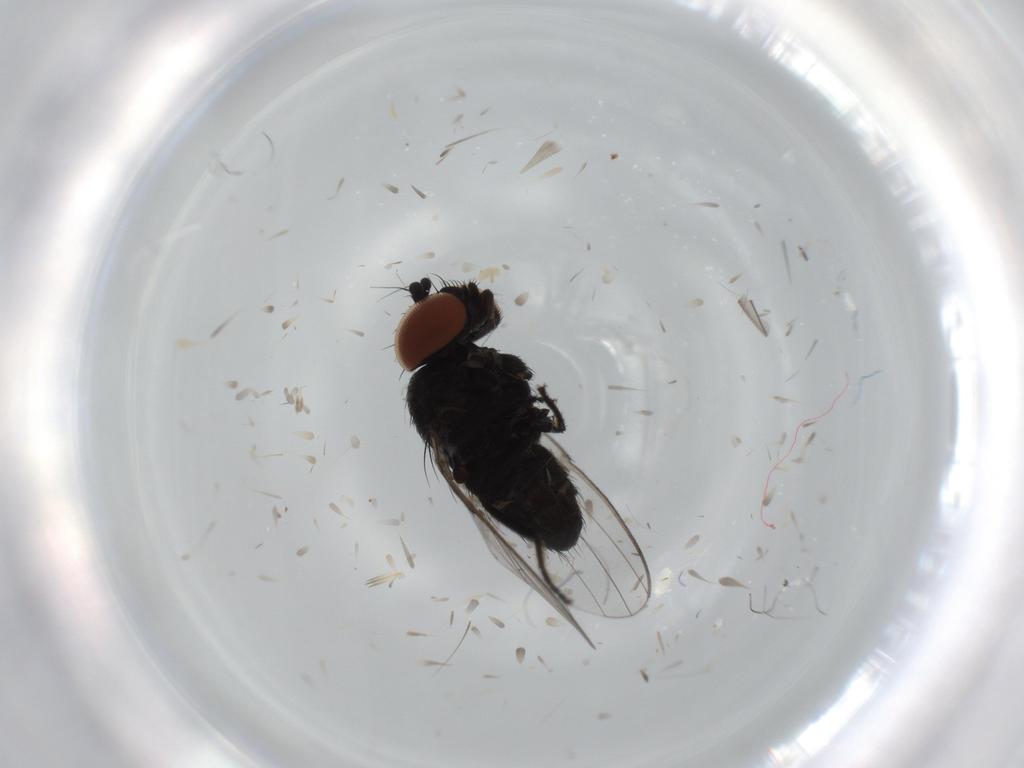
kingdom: Animalia
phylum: Arthropoda
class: Insecta
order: Diptera
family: Milichiidae
